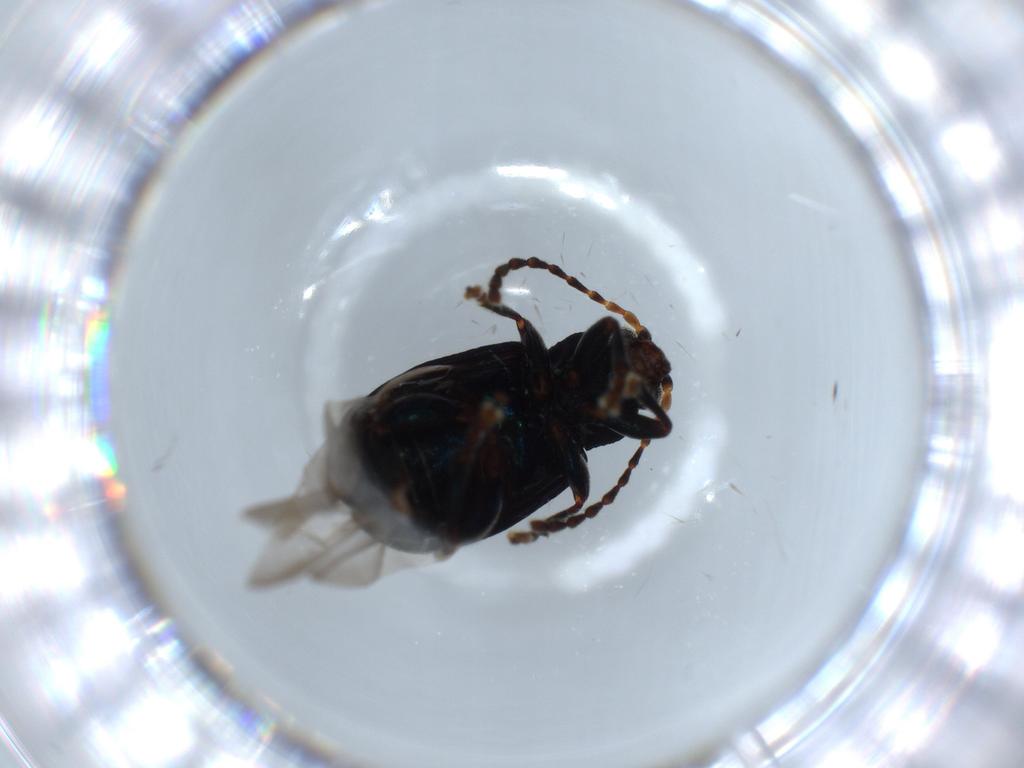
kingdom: Animalia
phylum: Arthropoda
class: Insecta
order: Coleoptera
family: Chrysomelidae
